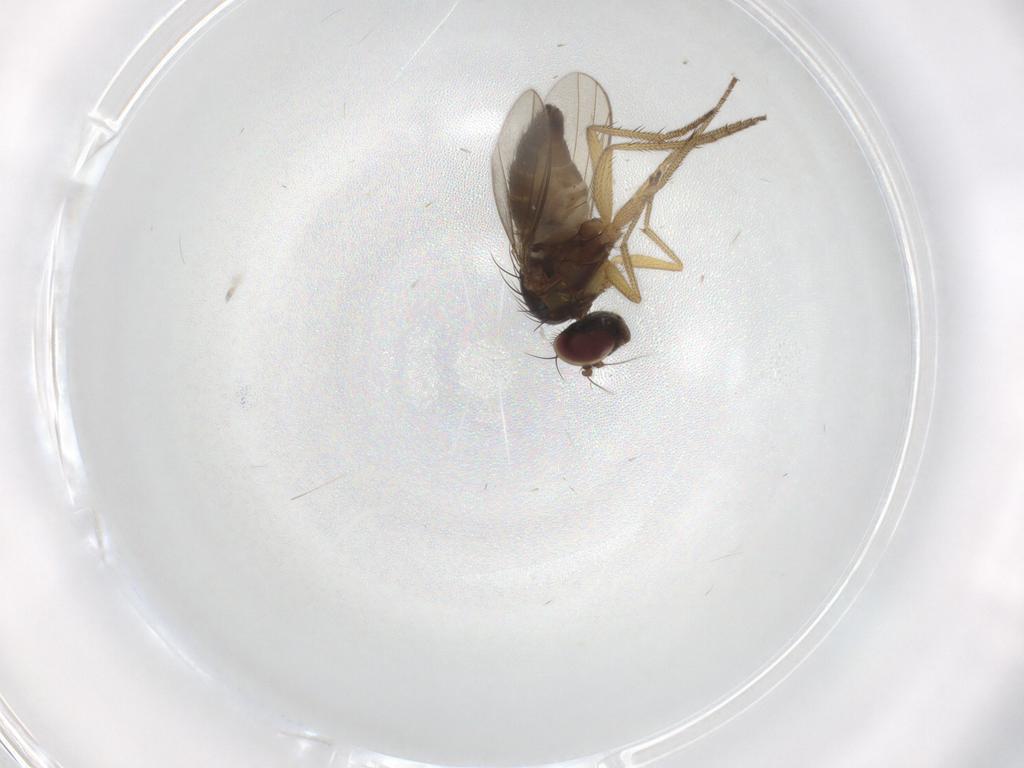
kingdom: Animalia
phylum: Arthropoda
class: Insecta
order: Diptera
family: Dolichopodidae
